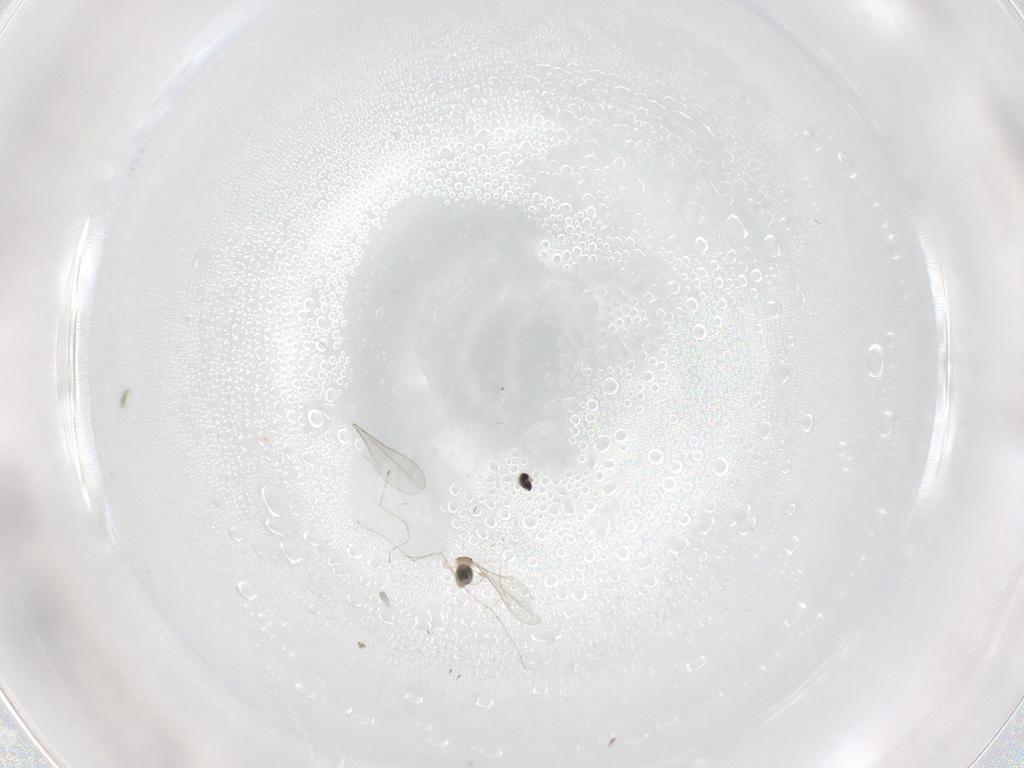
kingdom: Animalia
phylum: Arthropoda
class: Insecta
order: Diptera
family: Cecidomyiidae
